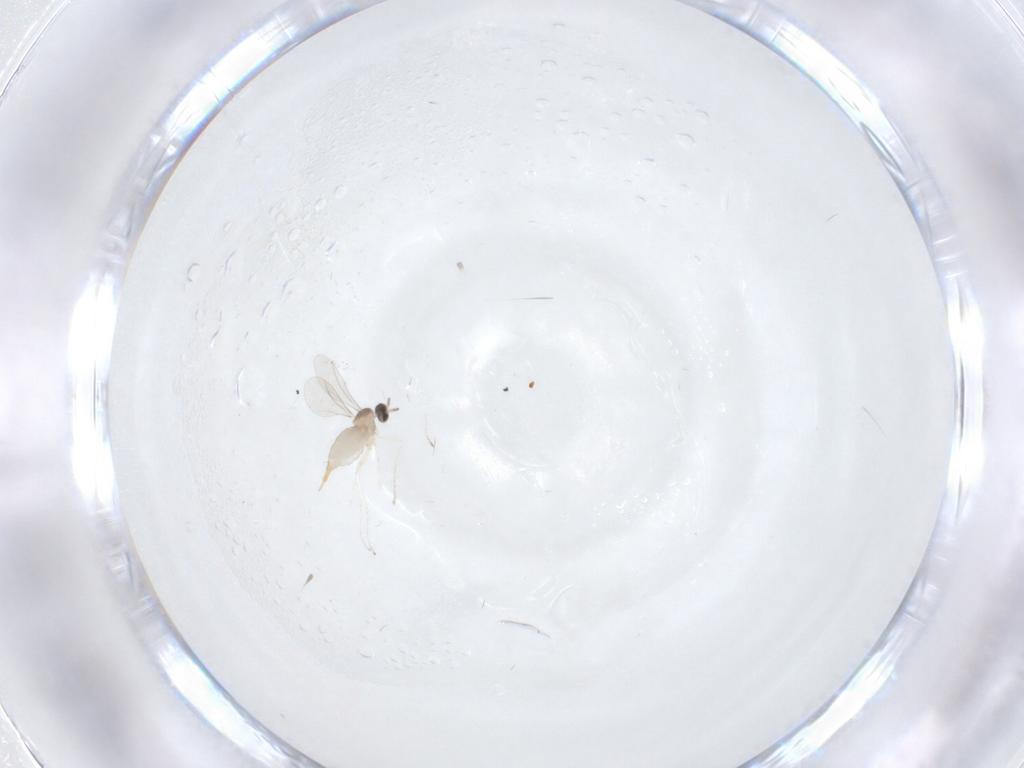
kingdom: Animalia
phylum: Arthropoda
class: Insecta
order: Diptera
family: Cecidomyiidae
